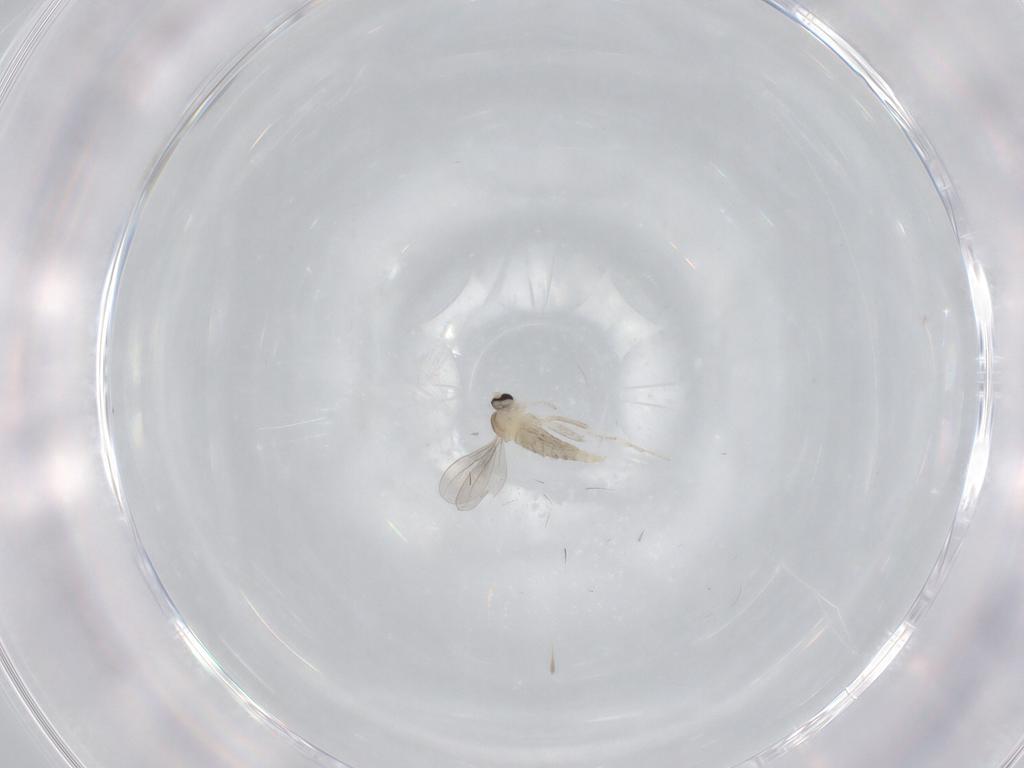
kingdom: Animalia
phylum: Arthropoda
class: Insecta
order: Diptera
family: Cecidomyiidae
